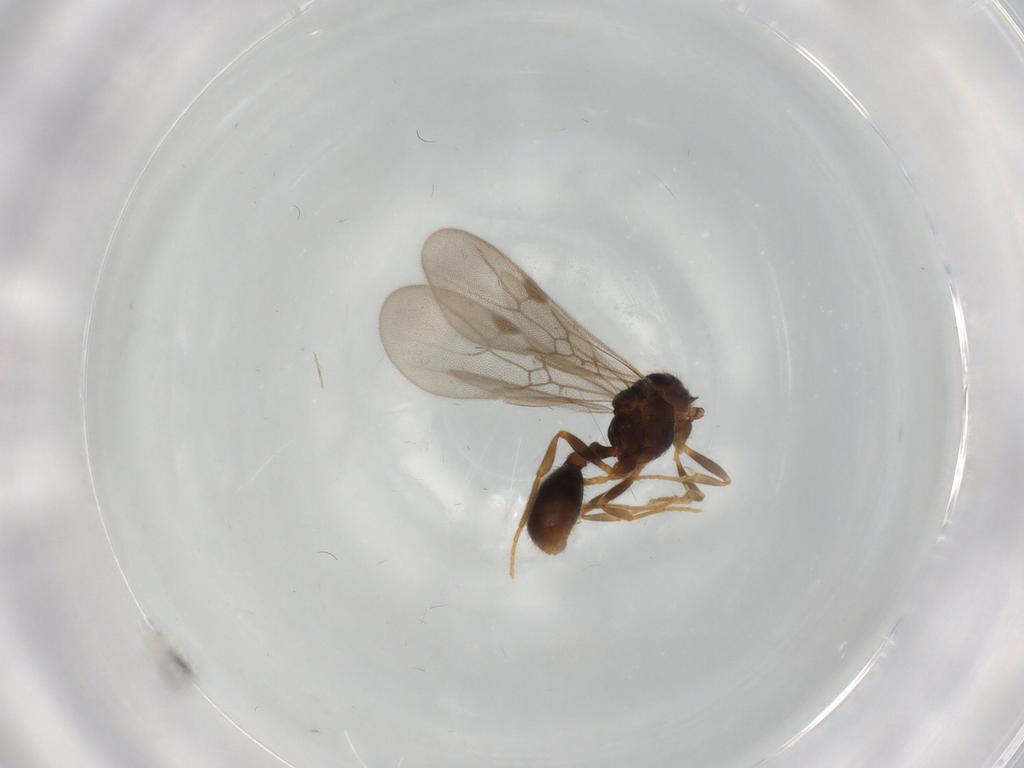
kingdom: Animalia
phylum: Arthropoda
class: Insecta
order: Hymenoptera
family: Formicidae
